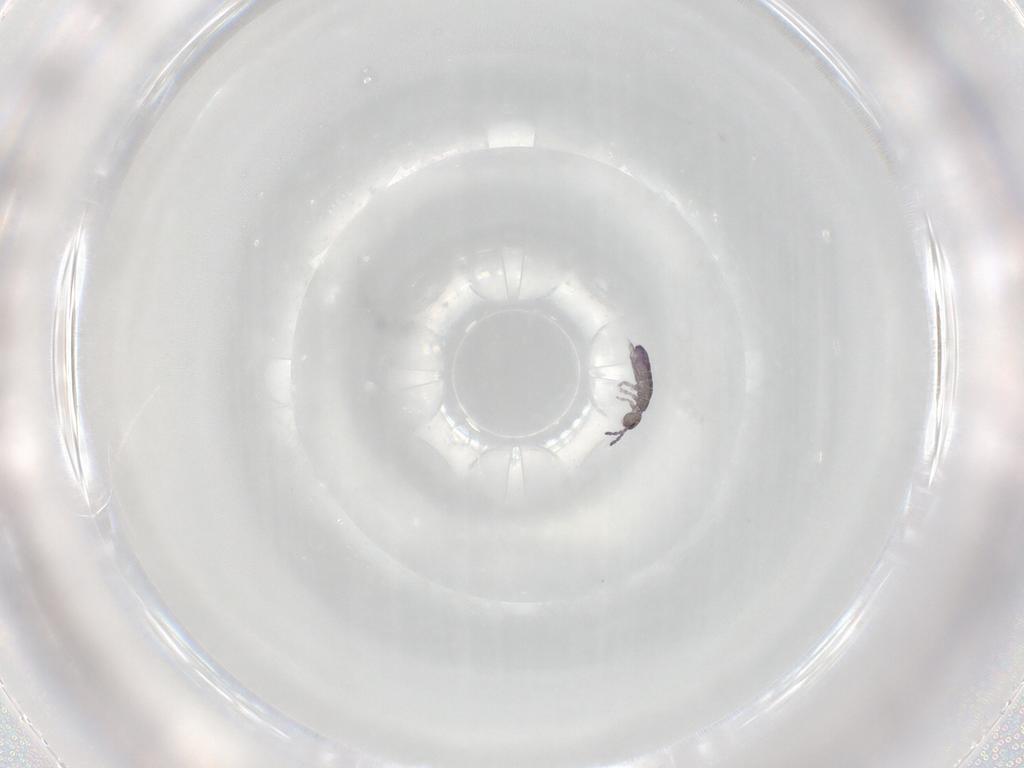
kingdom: Animalia
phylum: Arthropoda
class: Collembola
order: Entomobryomorpha
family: Isotomidae
